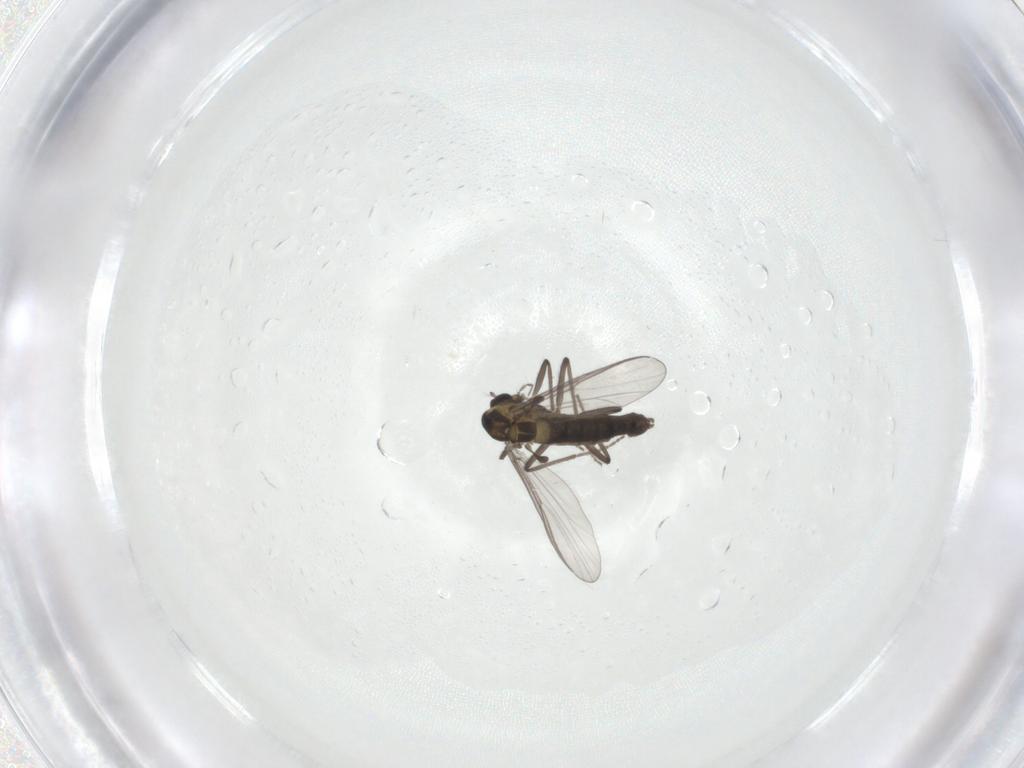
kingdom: Animalia
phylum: Arthropoda
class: Insecta
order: Diptera
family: Chironomidae
